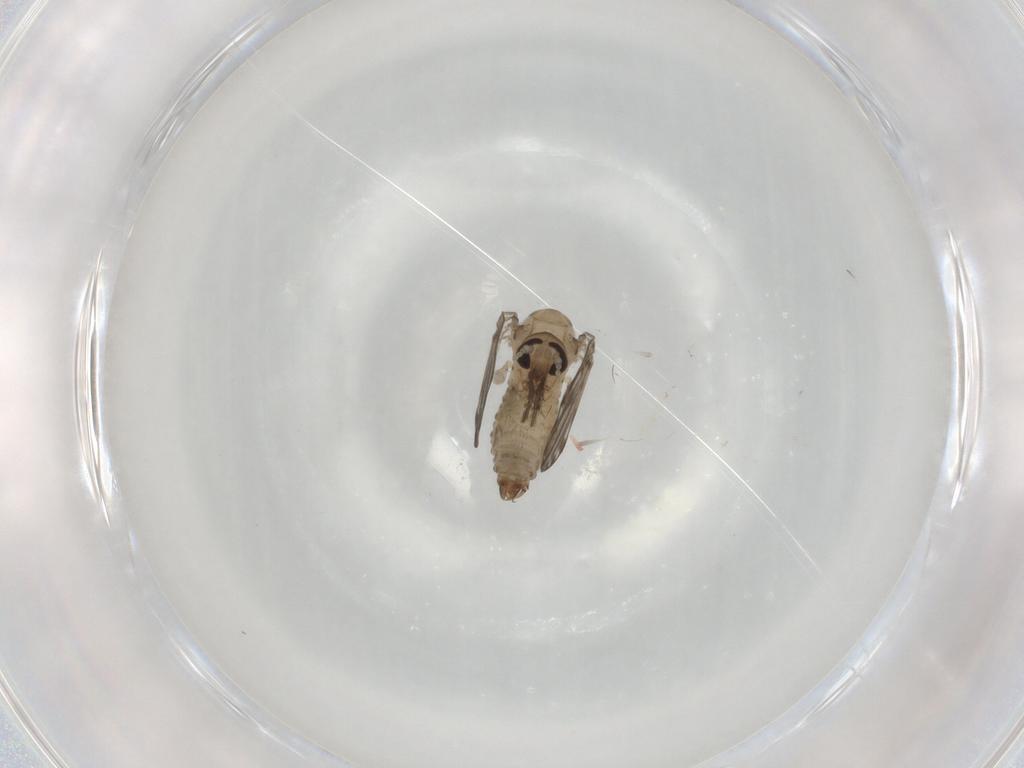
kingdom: Animalia
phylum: Arthropoda
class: Insecta
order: Diptera
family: Psychodidae
